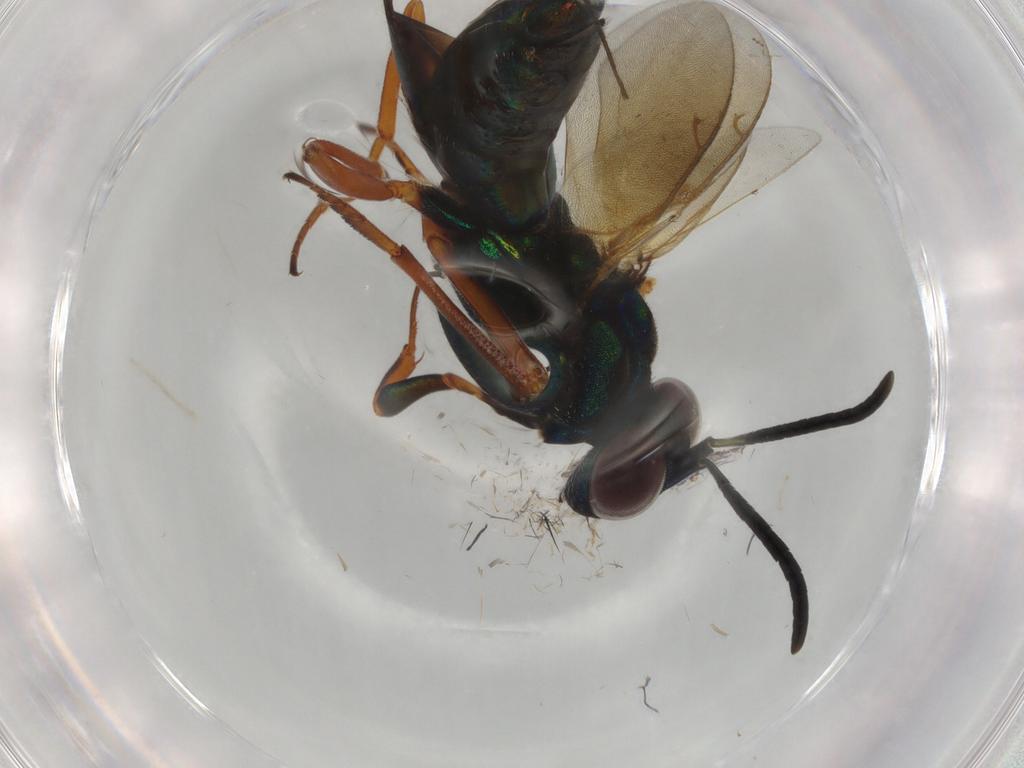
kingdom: Animalia
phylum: Arthropoda
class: Insecta
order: Hymenoptera
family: Eupelmidae
